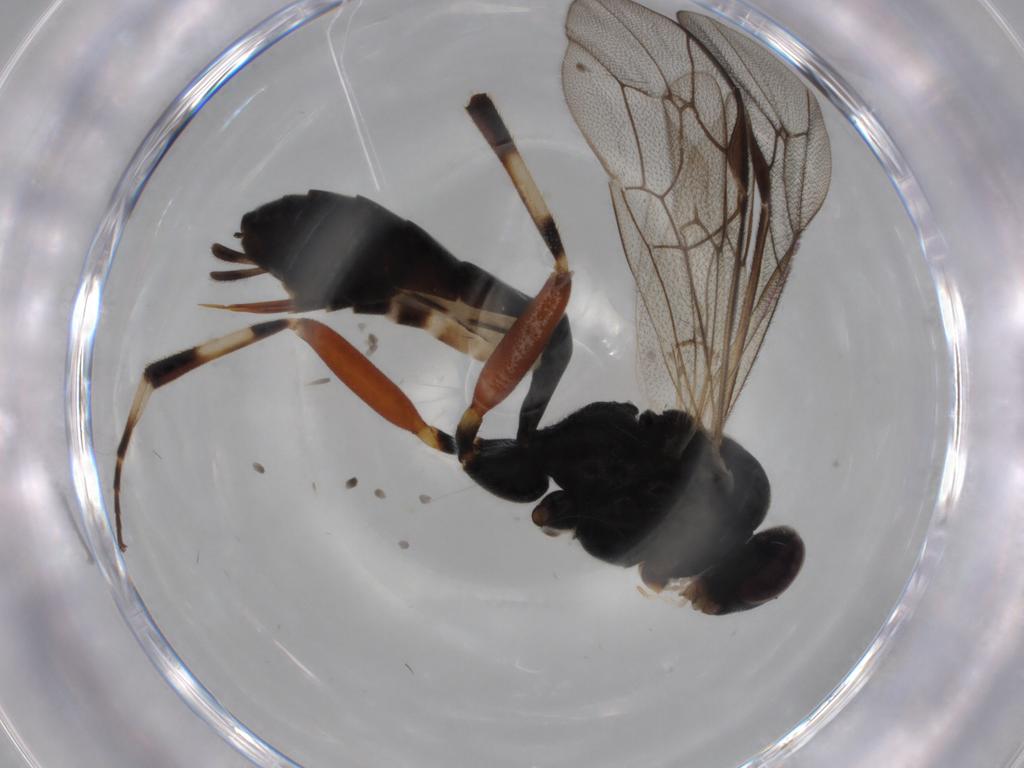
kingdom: Animalia
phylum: Arthropoda
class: Insecta
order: Hymenoptera
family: Ichneumonidae
